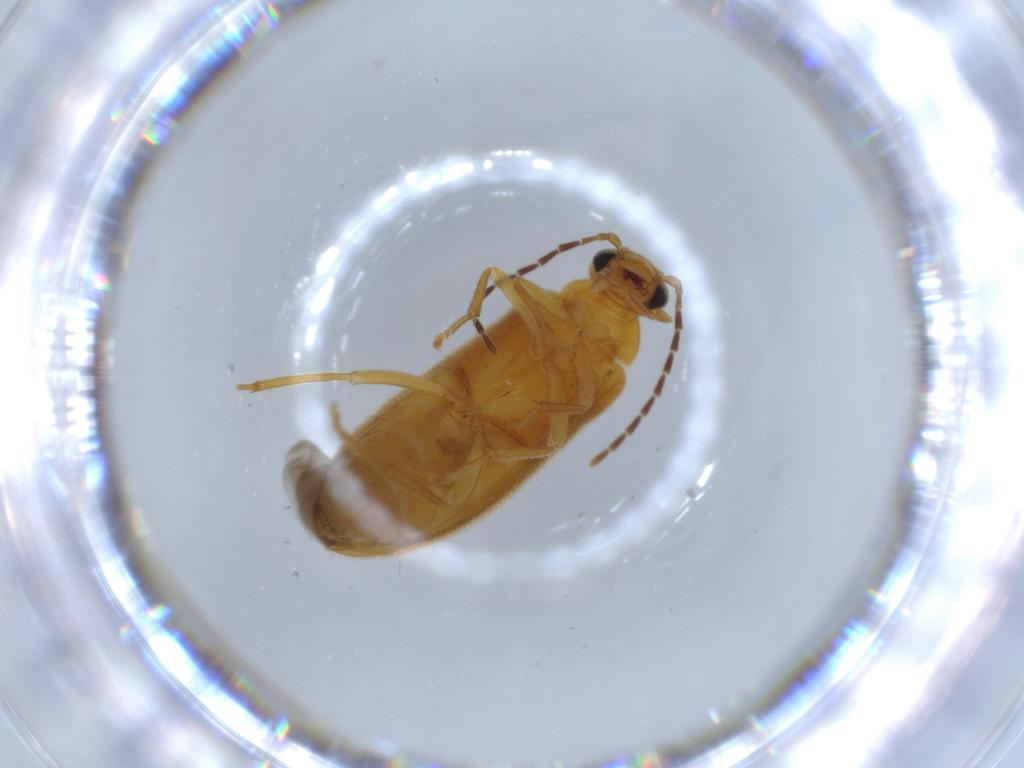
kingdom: Animalia
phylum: Arthropoda
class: Insecta
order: Coleoptera
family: Scraptiidae
